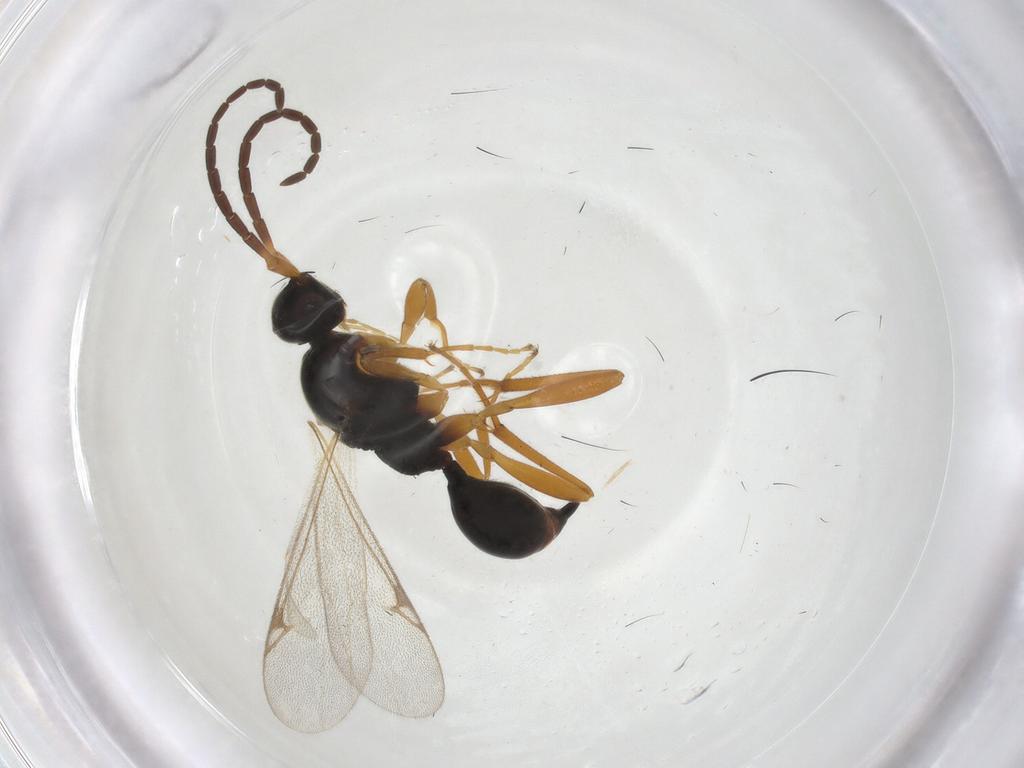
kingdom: Animalia
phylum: Arthropoda
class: Insecta
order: Hymenoptera
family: Proctotrupidae
